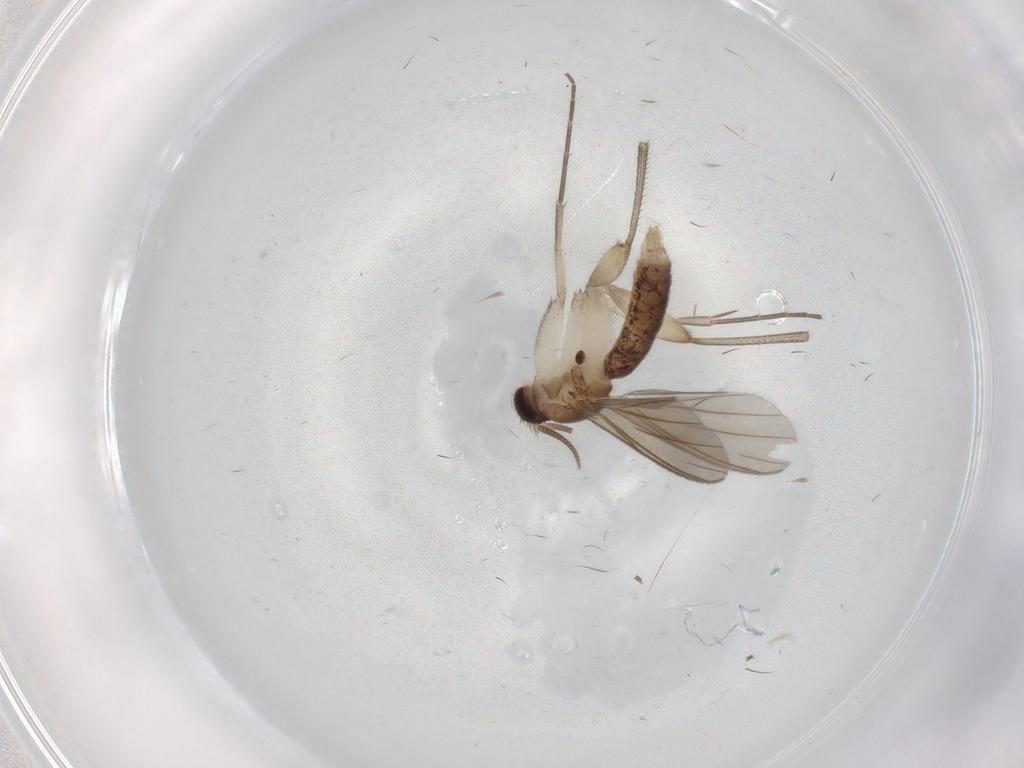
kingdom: Animalia
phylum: Arthropoda
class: Insecta
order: Diptera
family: Mycetophilidae
